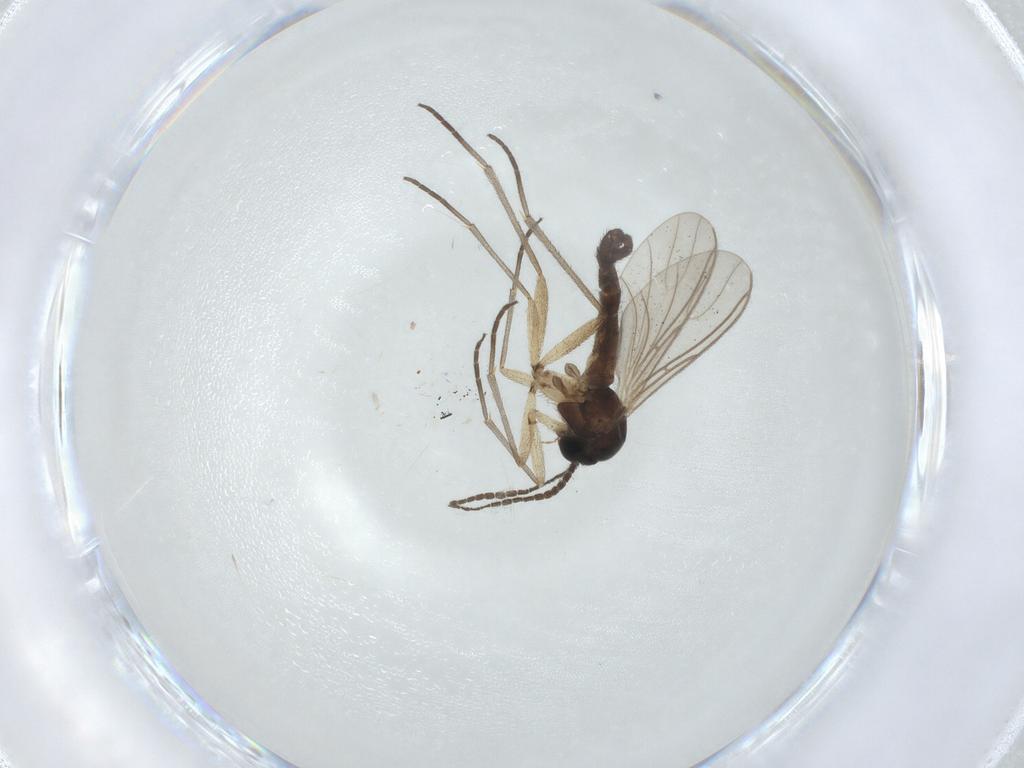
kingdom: Animalia
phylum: Arthropoda
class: Insecta
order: Diptera
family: Sciaridae
